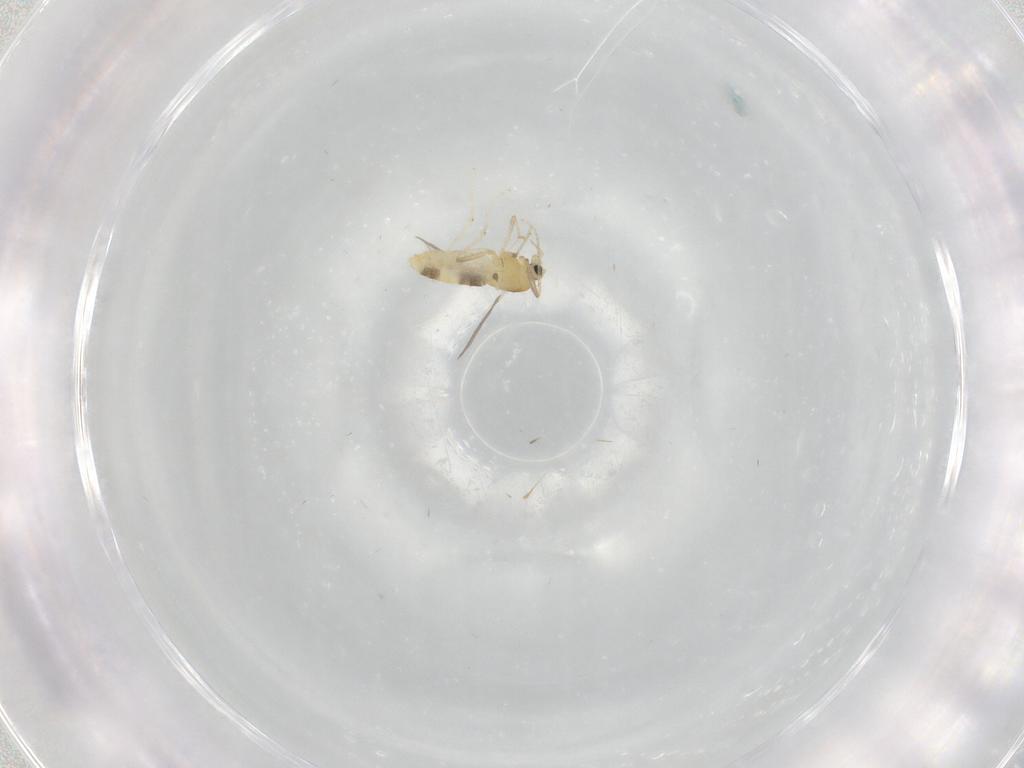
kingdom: Animalia
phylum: Arthropoda
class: Insecta
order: Diptera
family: Chironomidae
